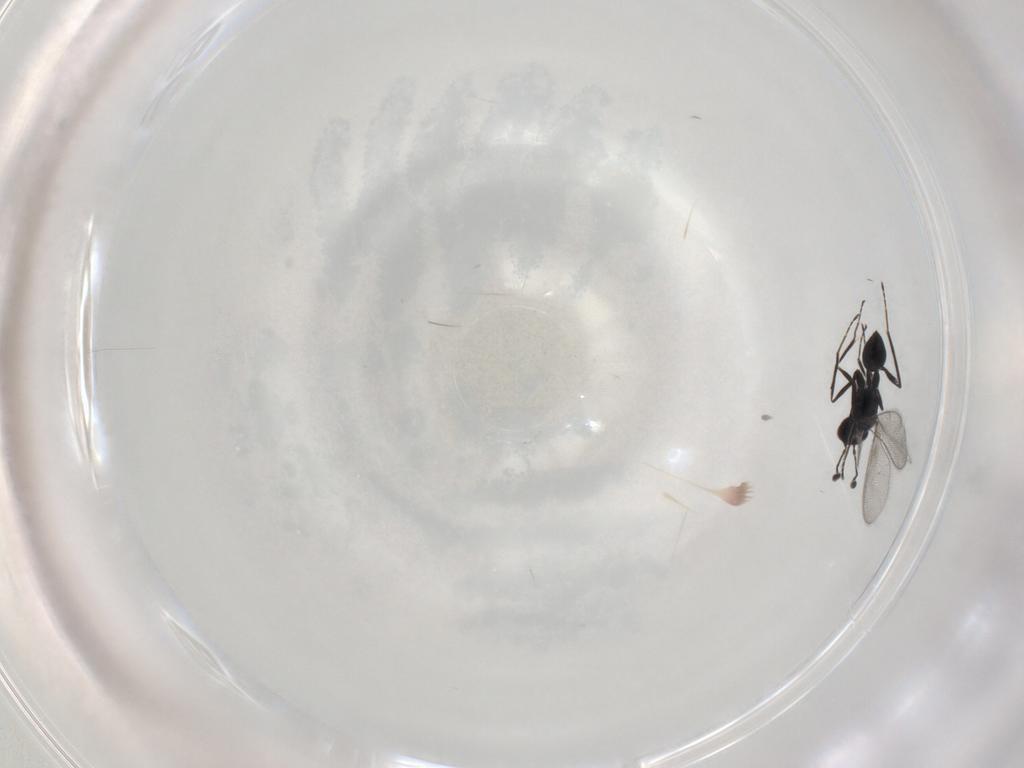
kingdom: Animalia
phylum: Arthropoda
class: Insecta
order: Hymenoptera
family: Mymaridae
